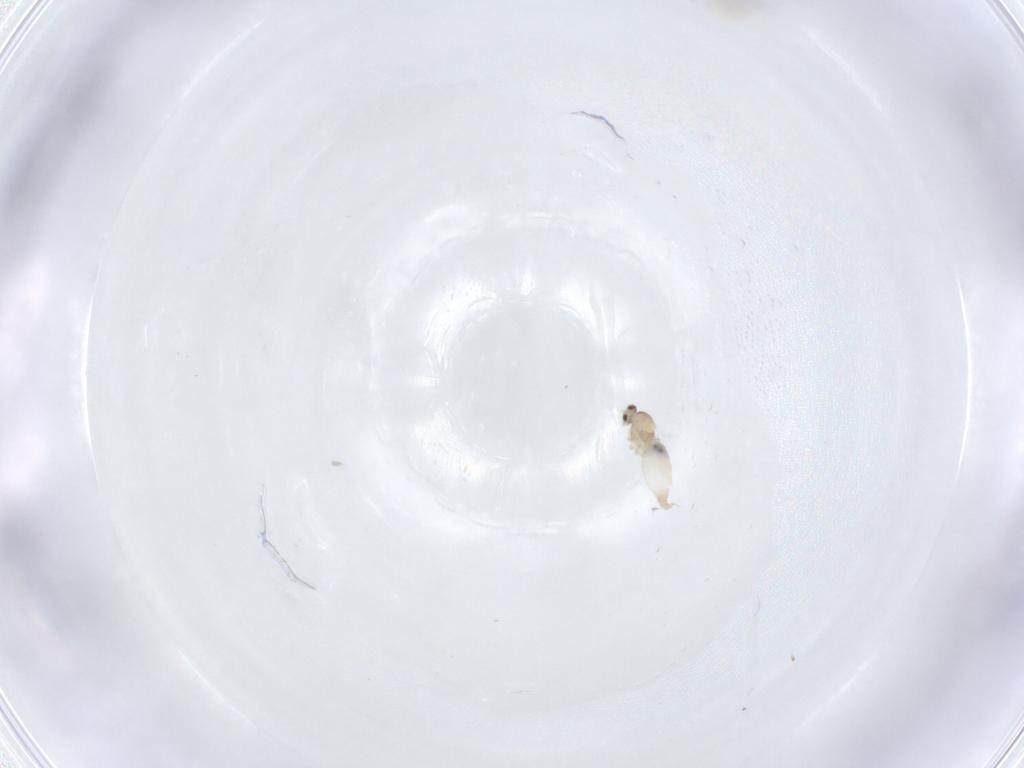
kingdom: Animalia
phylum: Arthropoda
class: Insecta
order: Diptera
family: Cecidomyiidae
